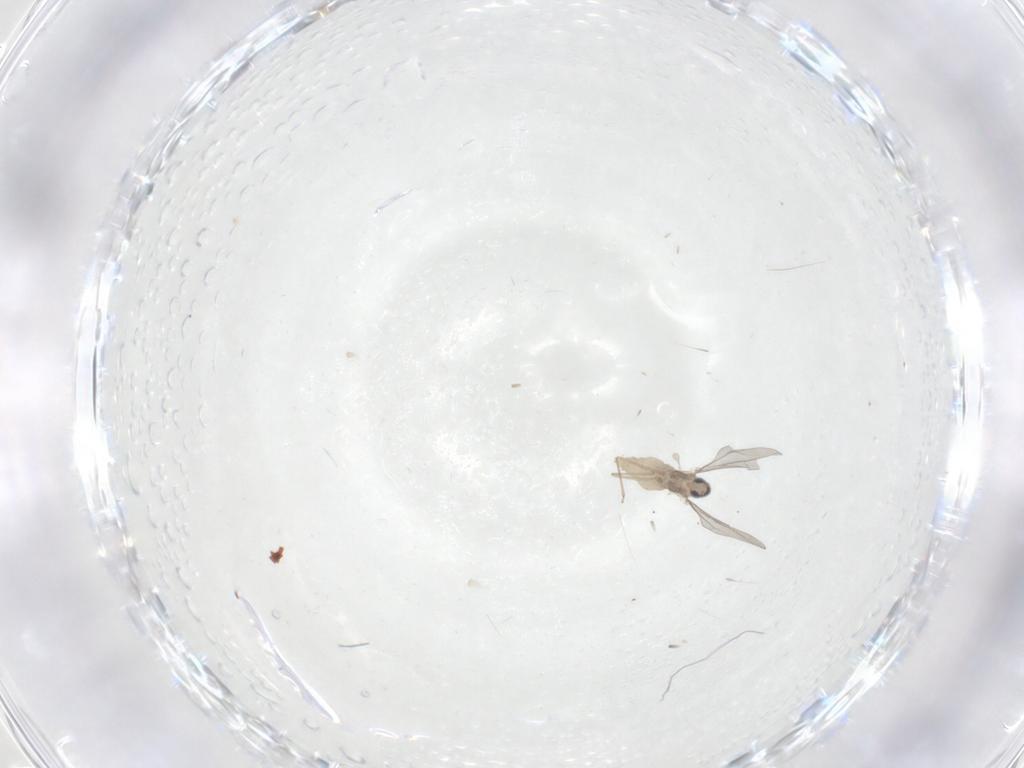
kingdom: Animalia
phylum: Arthropoda
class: Insecta
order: Diptera
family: Cecidomyiidae
